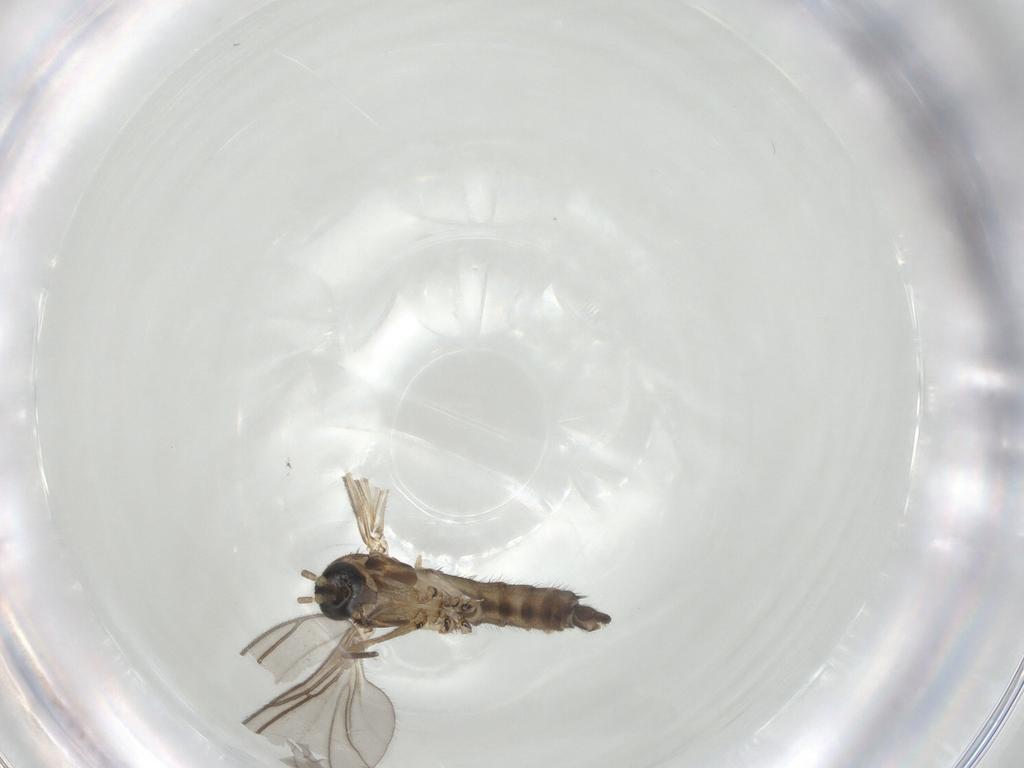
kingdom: Animalia
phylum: Arthropoda
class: Insecta
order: Diptera
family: Sciaridae
